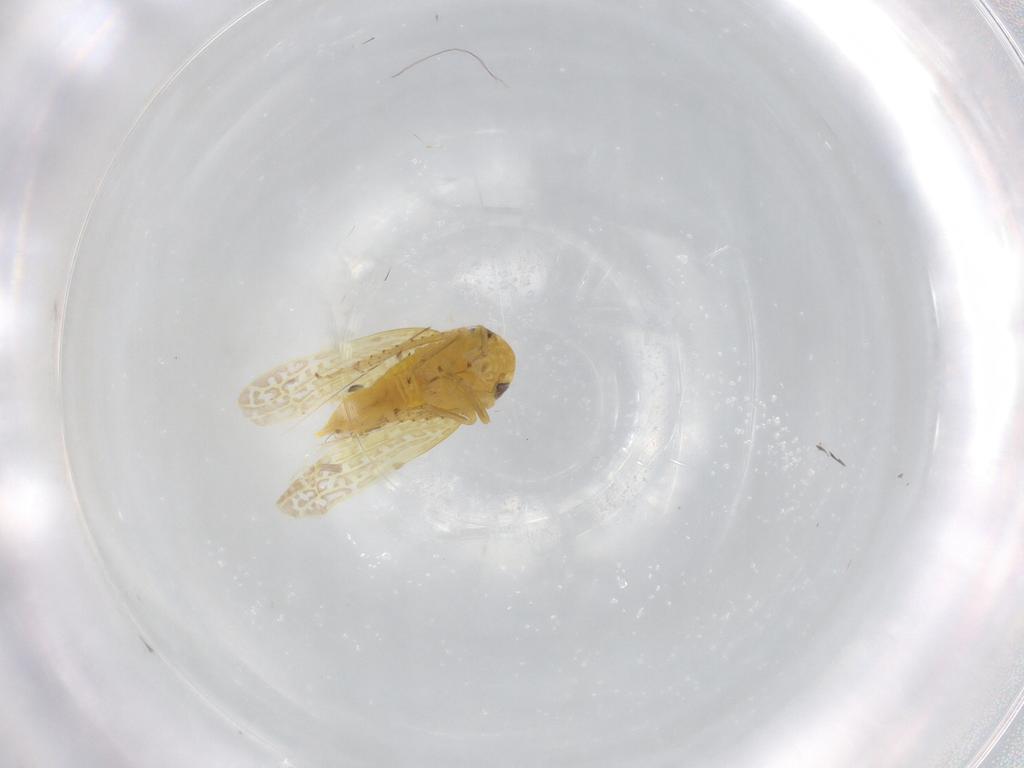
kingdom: Animalia
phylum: Arthropoda
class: Insecta
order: Hemiptera
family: Cicadellidae
